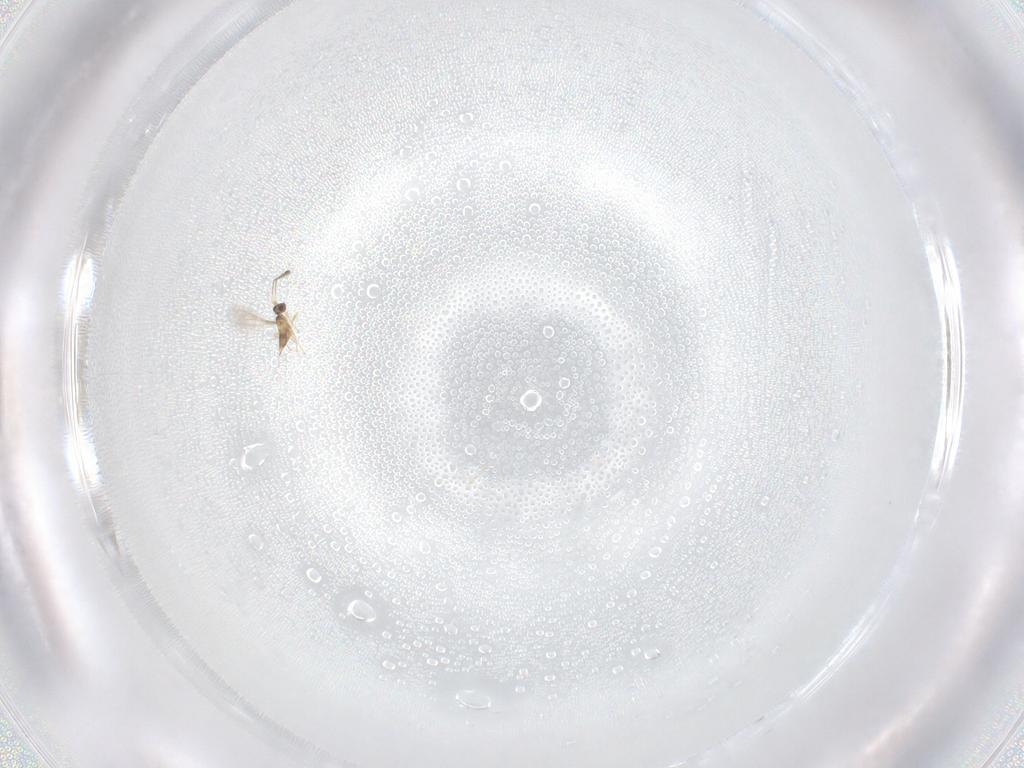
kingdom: Animalia
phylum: Arthropoda
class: Insecta
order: Hymenoptera
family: Mymaridae
